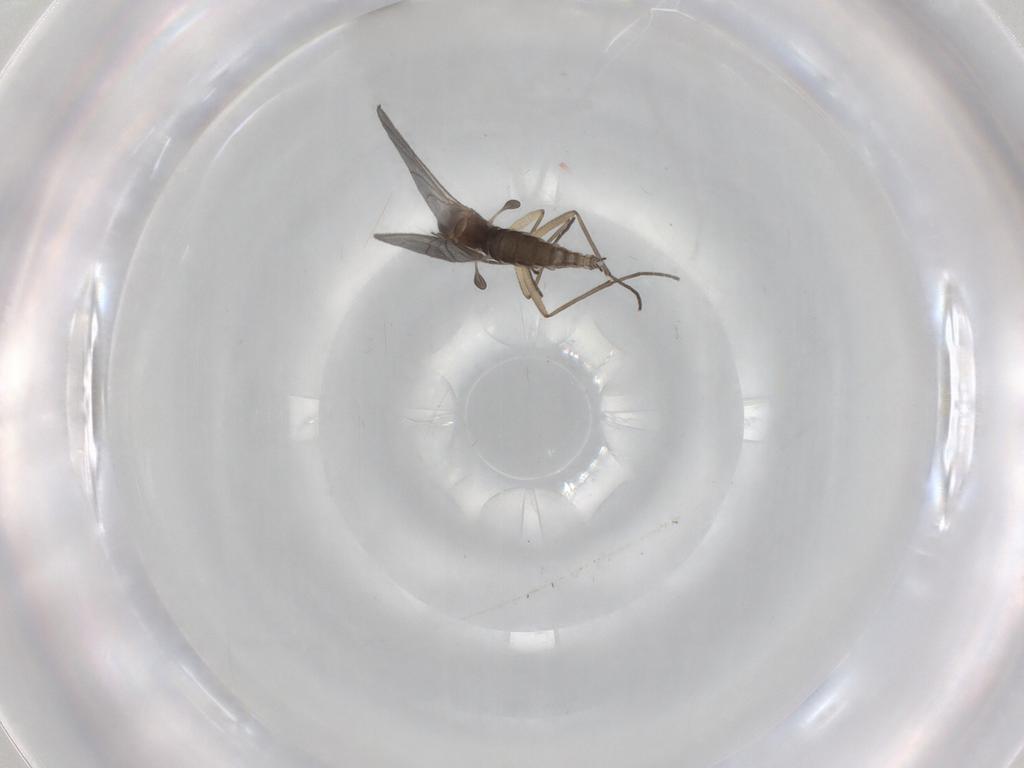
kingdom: Animalia
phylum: Arthropoda
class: Insecta
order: Diptera
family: Sciaridae
